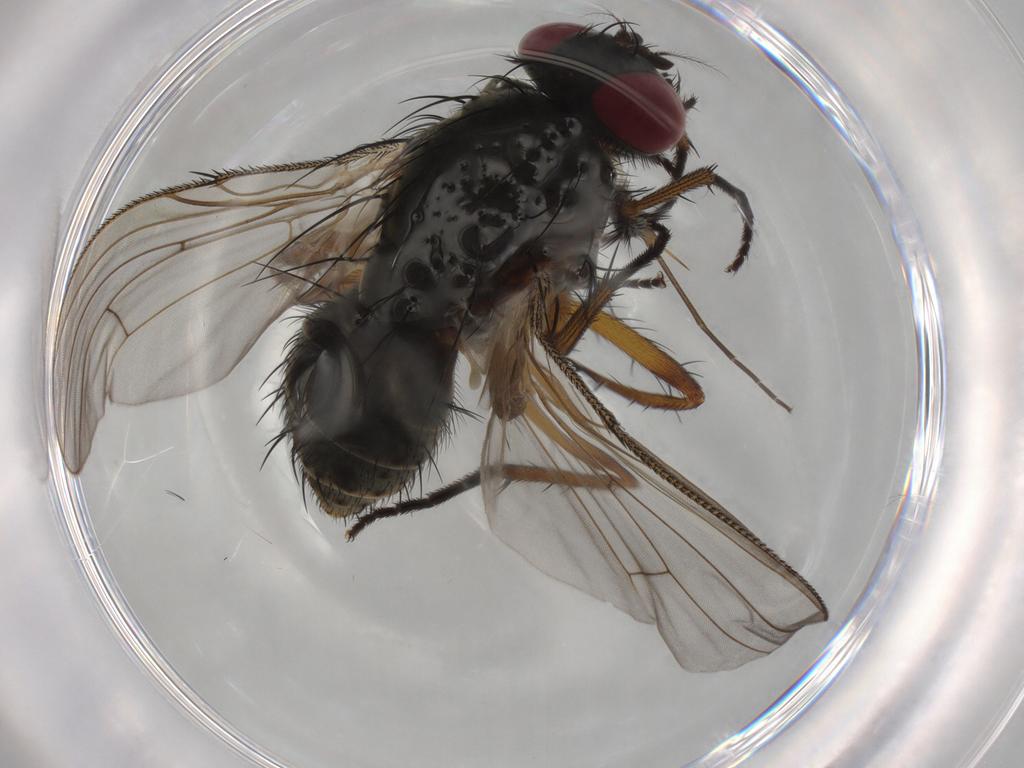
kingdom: Animalia
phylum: Arthropoda
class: Insecta
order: Diptera
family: Muscidae
